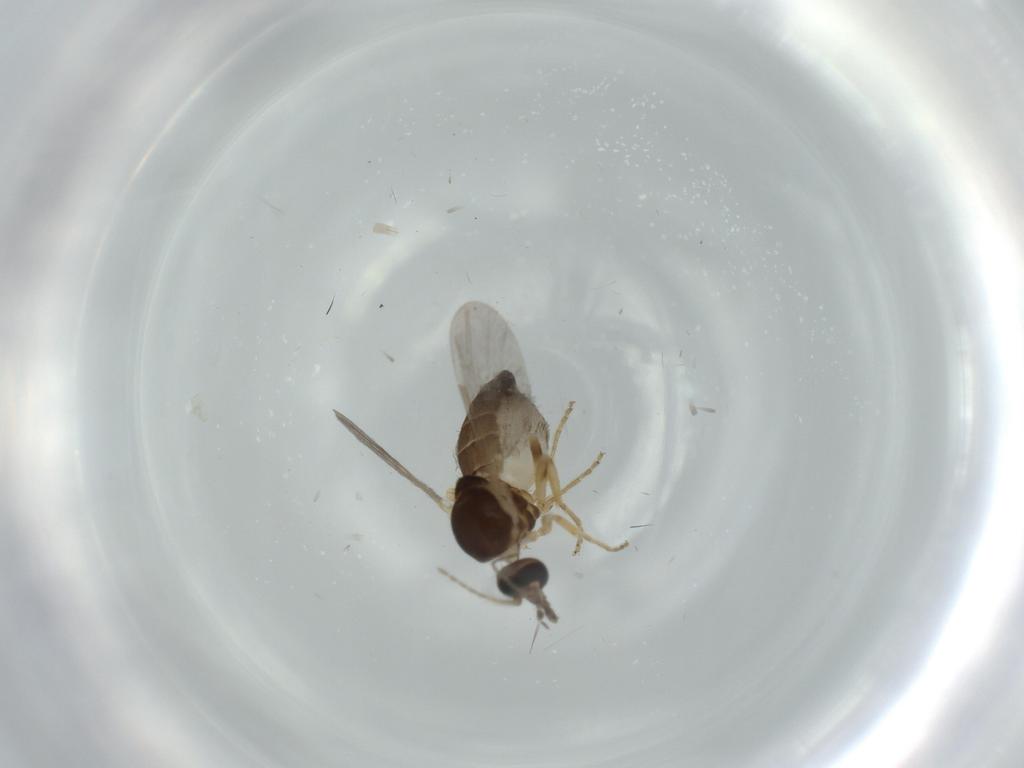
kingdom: Animalia
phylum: Arthropoda
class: Insecta
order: Diptera
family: Ceratopogonidae
